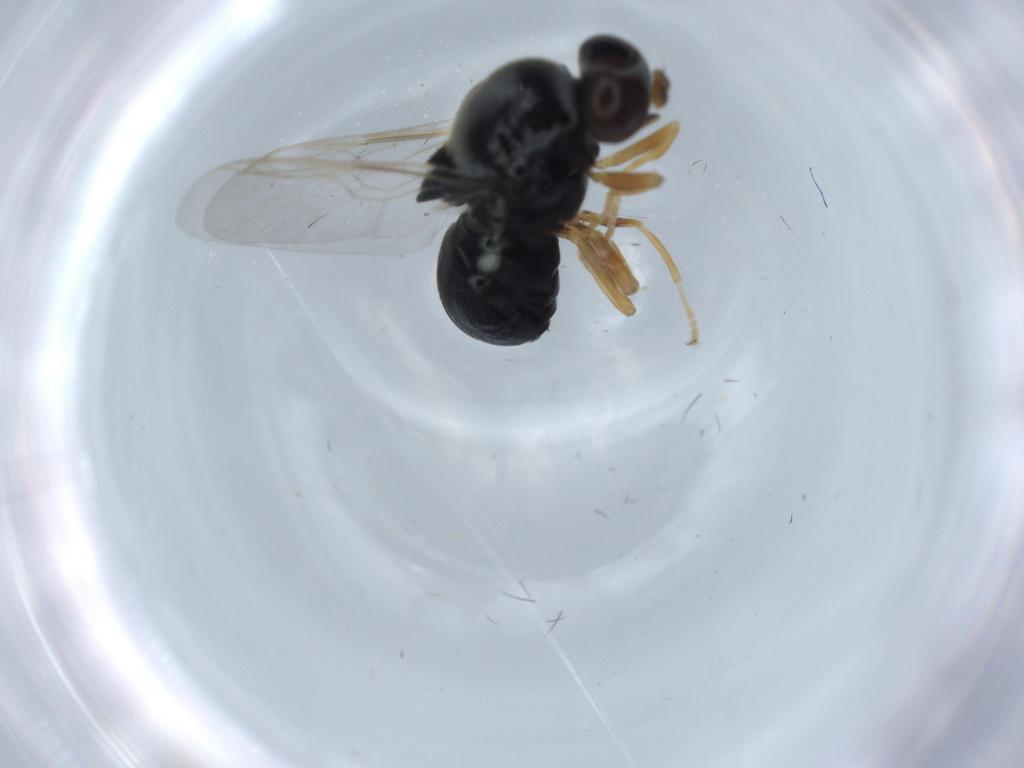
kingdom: Animalia
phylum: Arthropoda
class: Insecta
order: Diptera
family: Stratiomyidae
